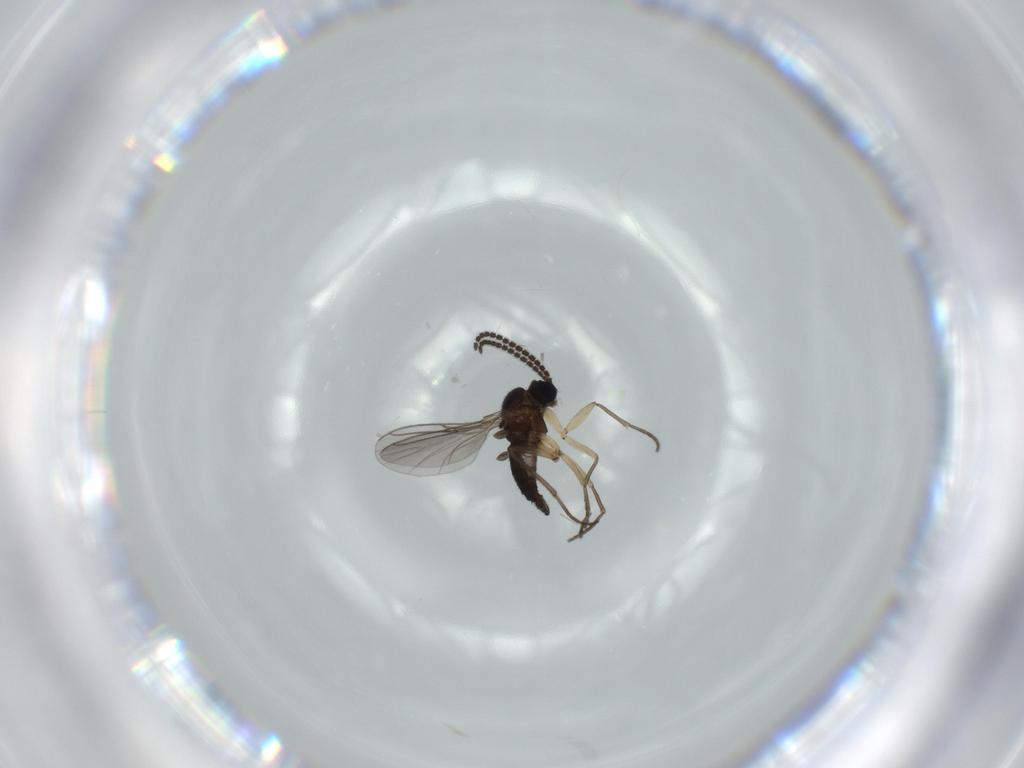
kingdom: Animalia
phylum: Arthropoda
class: Insecta
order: Diptera
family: Sciaridae
